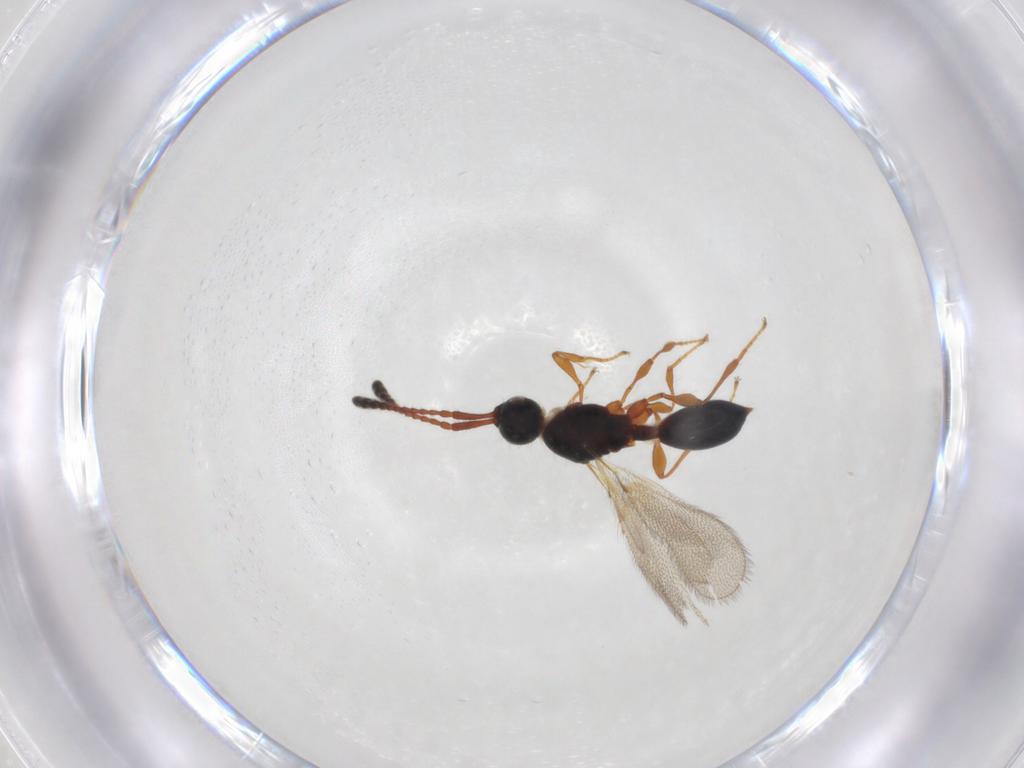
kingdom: Animalia
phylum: Arthropoda
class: Insecta
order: Hymenoptera
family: Diapriidae
